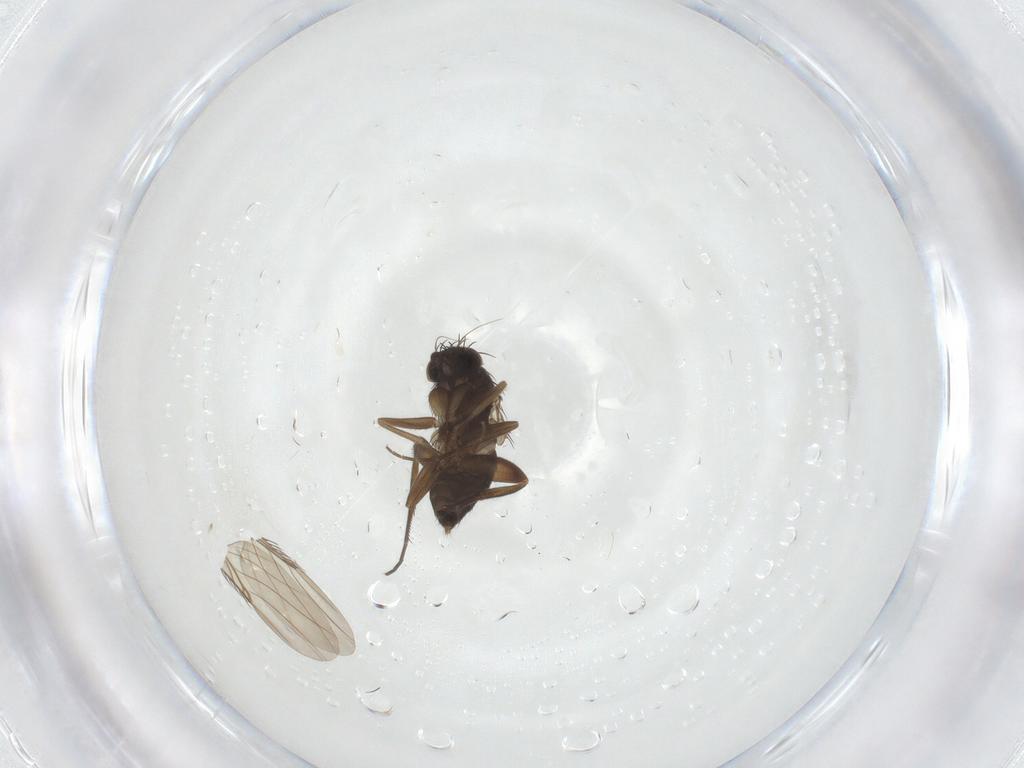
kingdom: Animalia
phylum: Arthropoda
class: Insecta
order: Diptera
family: Phoridae
